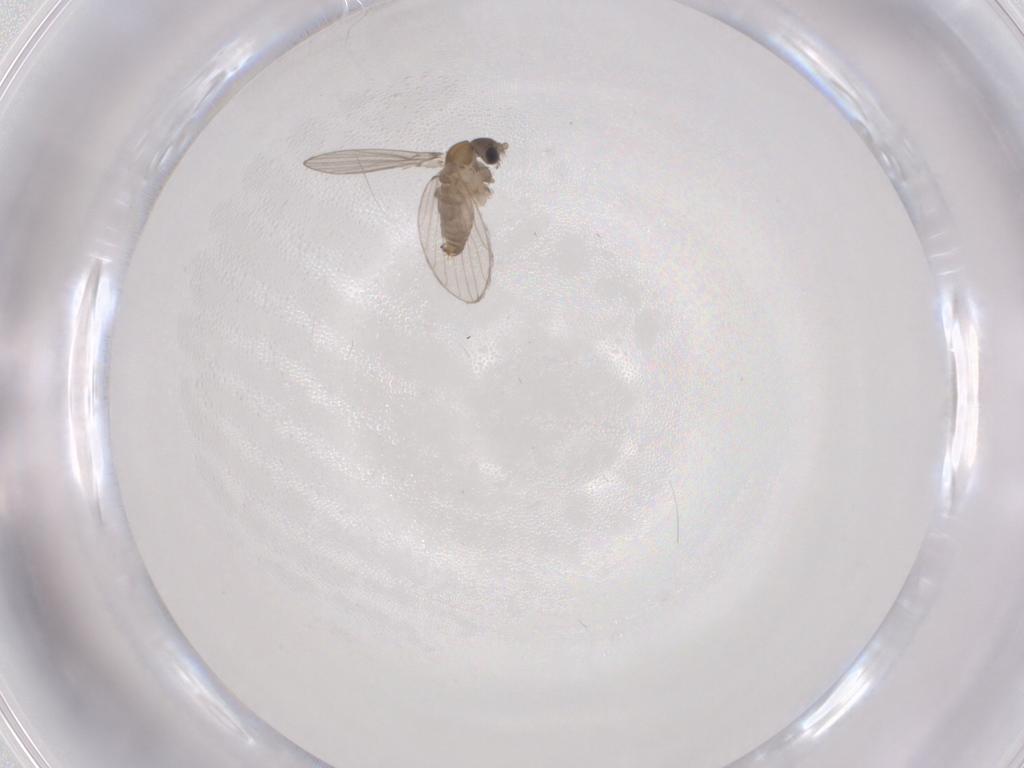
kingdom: Animalia
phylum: Arthropoda
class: Insecta
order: Diptera
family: Psychodidae
